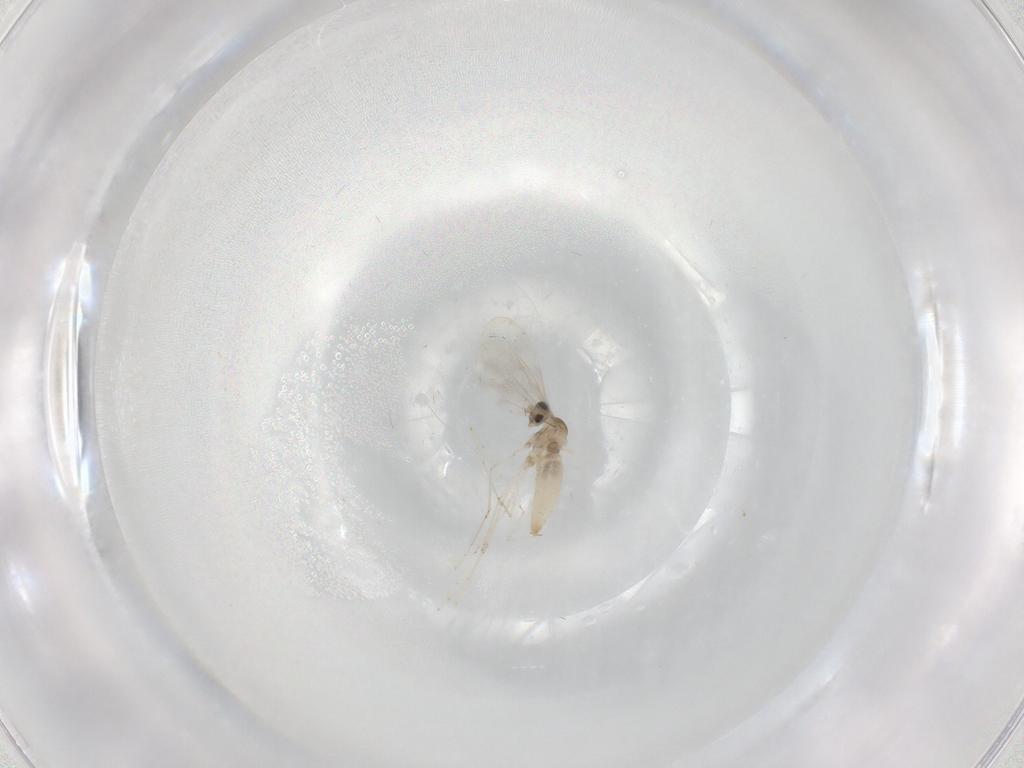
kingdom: Animalia
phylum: Arthropoda
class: Insecta
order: Diptera
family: Cecidomyiidae
